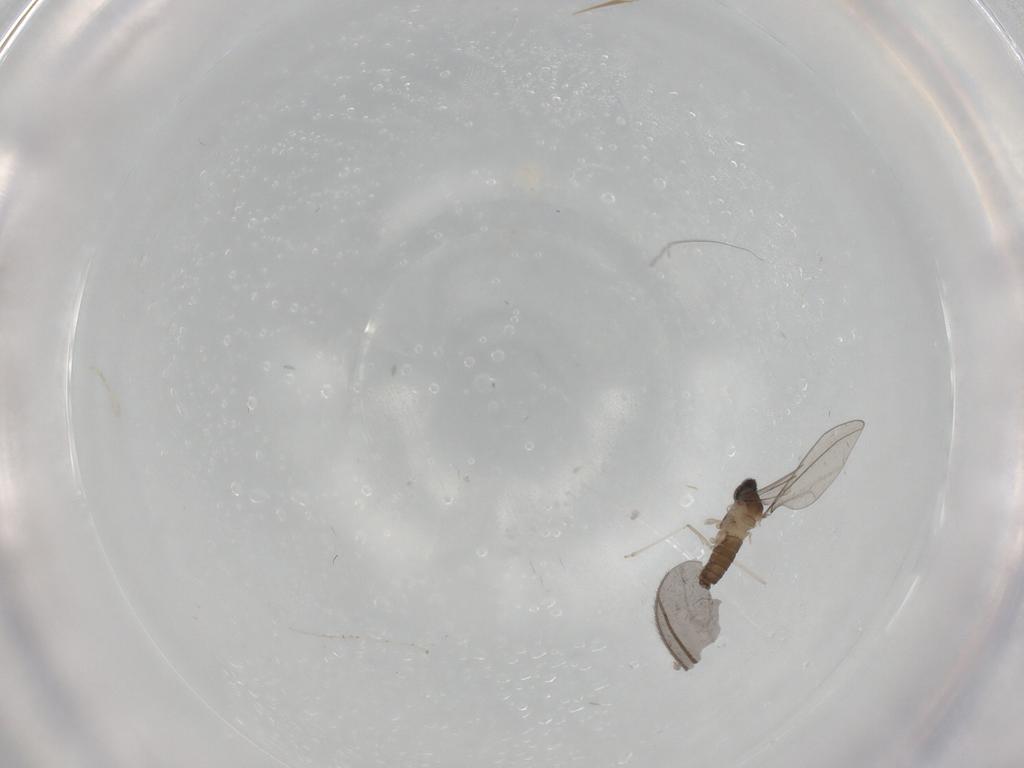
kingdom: Animalia
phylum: Arthropoda
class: Insecta
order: Diptera
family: Cecidomyiidae
